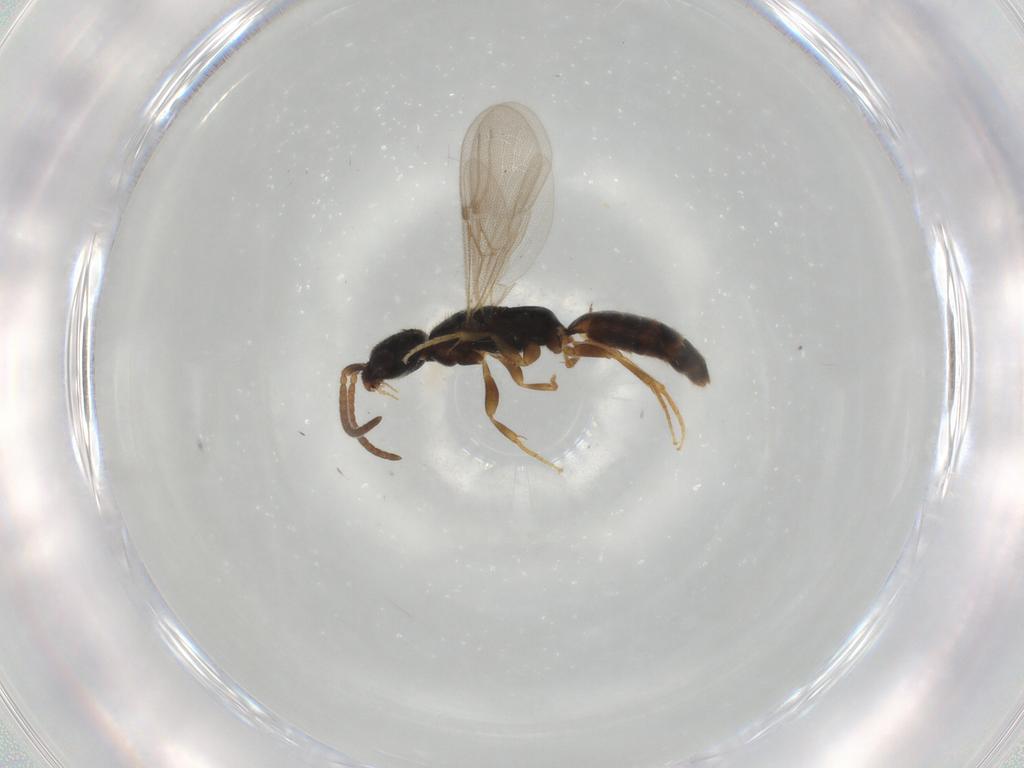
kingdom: Animalia
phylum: Arthropoda
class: Insecta
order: Hymenoptera
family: Bethylidae
